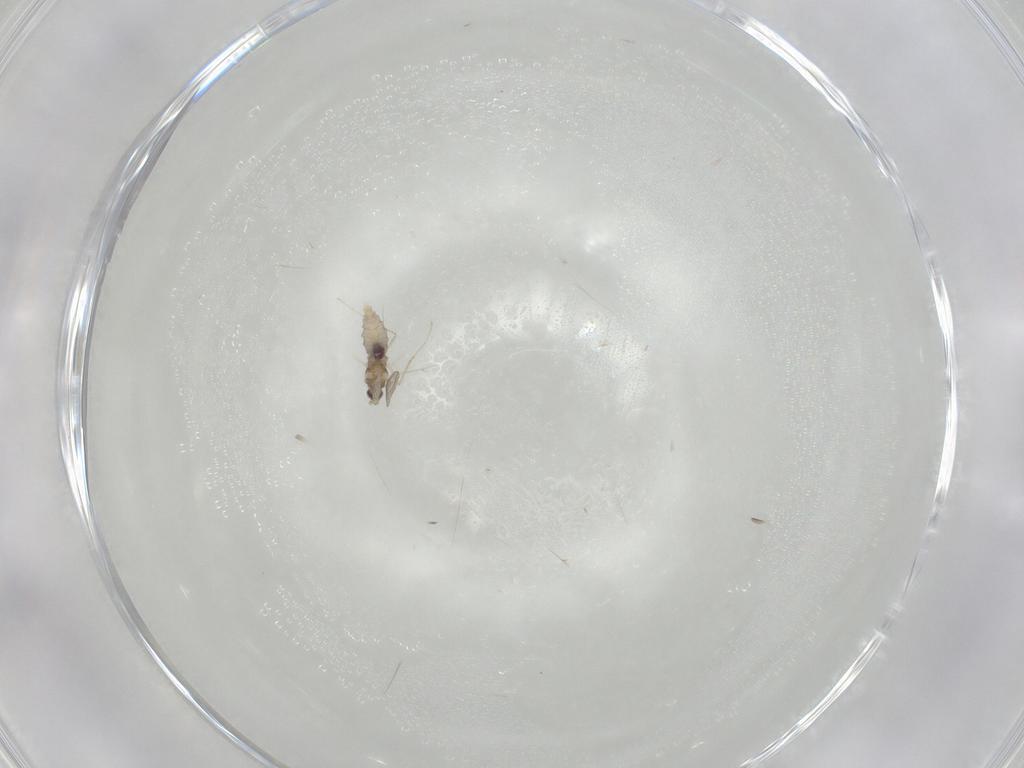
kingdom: Animalia
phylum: Arthropoda
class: Insecta
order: Diptera
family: Cecidomyiidae
